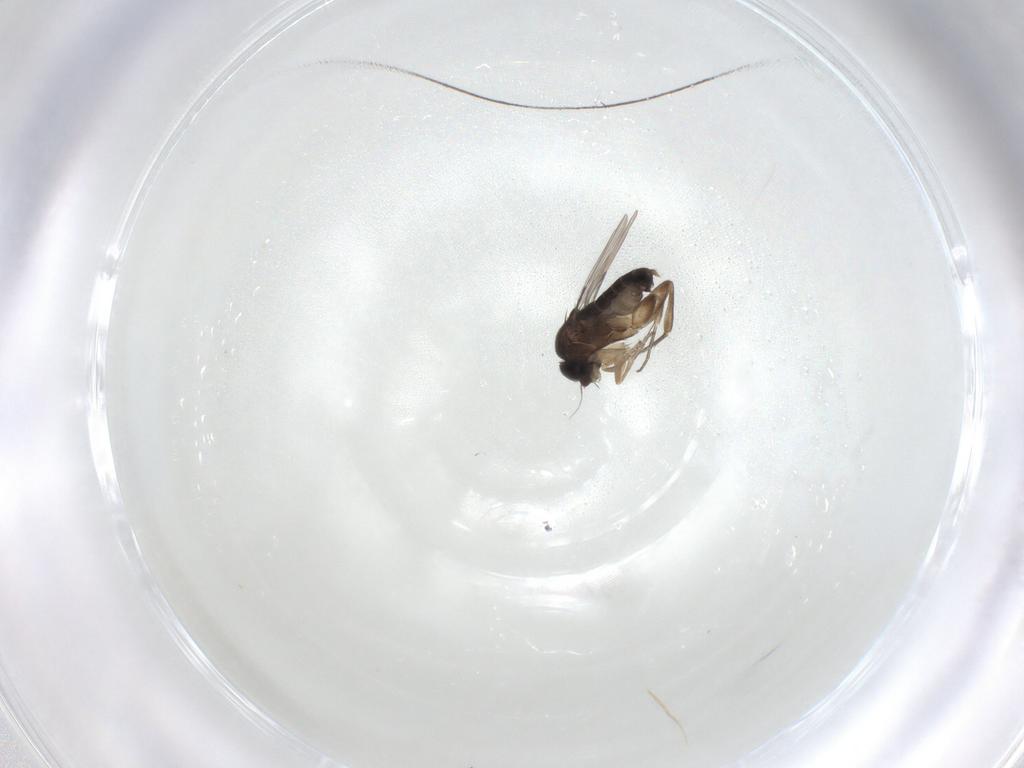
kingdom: Animalia
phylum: Arthropoda
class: Insecta
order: Diptera
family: Phoridae
